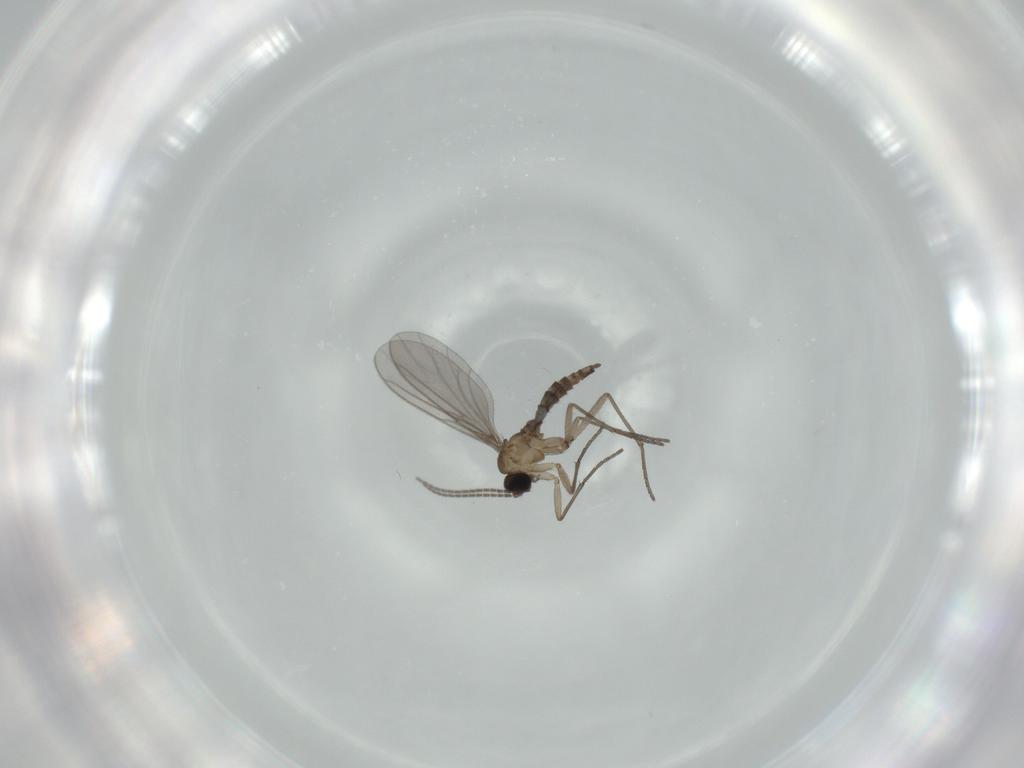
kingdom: Animalia
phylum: Arthropoda
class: Insecta
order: Diptera
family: Sciaridae
